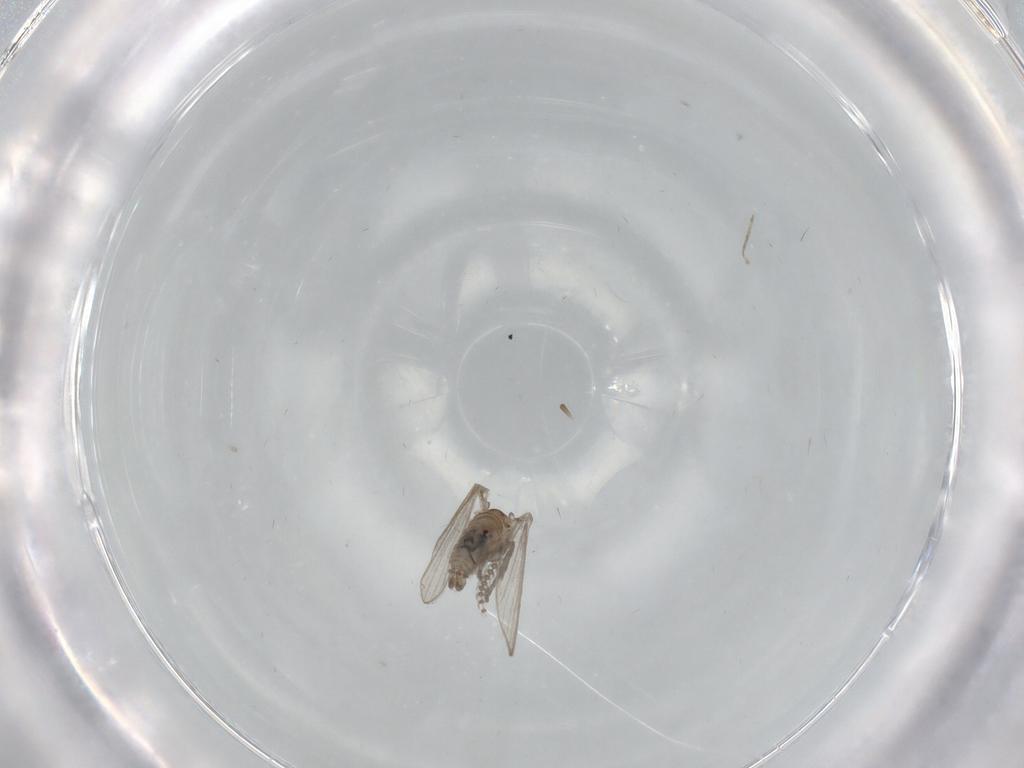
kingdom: Animalia
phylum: Arthropoda
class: Insecta
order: Diptera
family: Psychodidae
